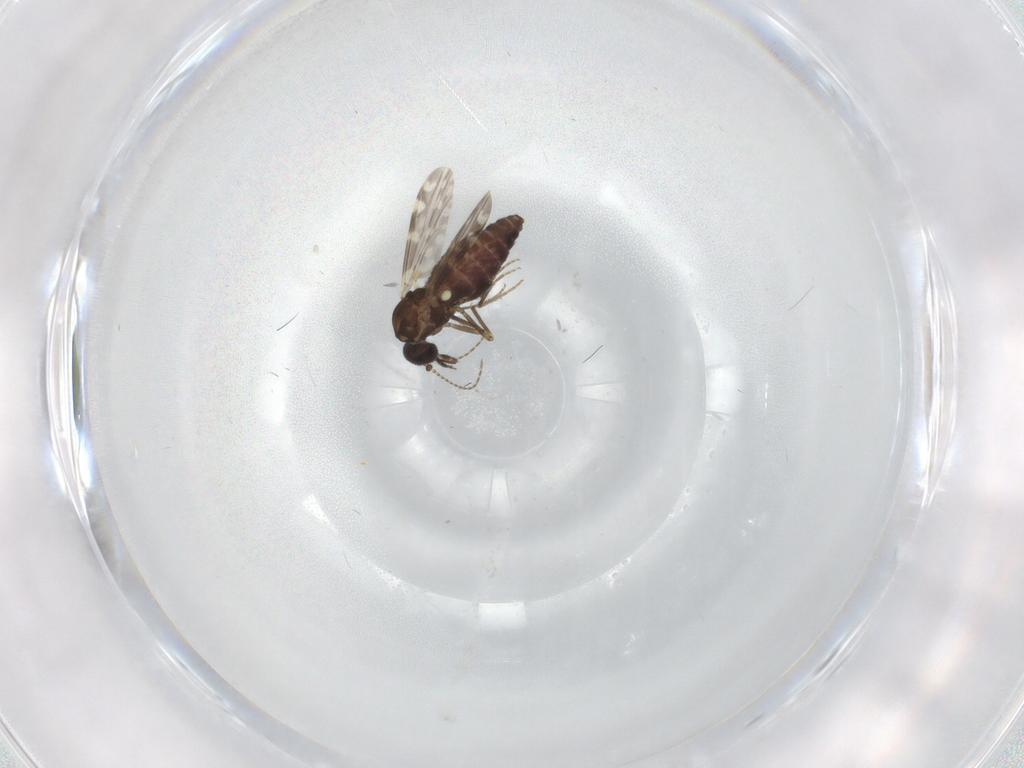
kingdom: Animalia
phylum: Arthropoda
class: Insecta
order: Diptera
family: Ceratopogonidae
